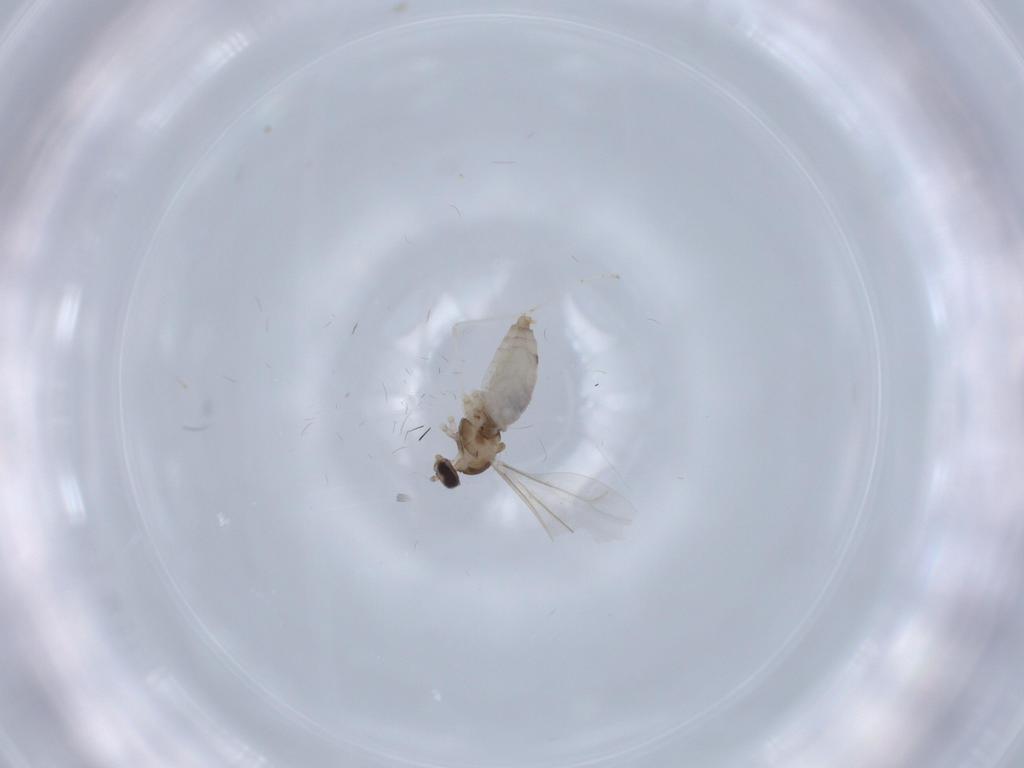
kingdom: Animalia
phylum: Arthropoda
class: Insecta
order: Diptera
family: Cecidomyiidae
